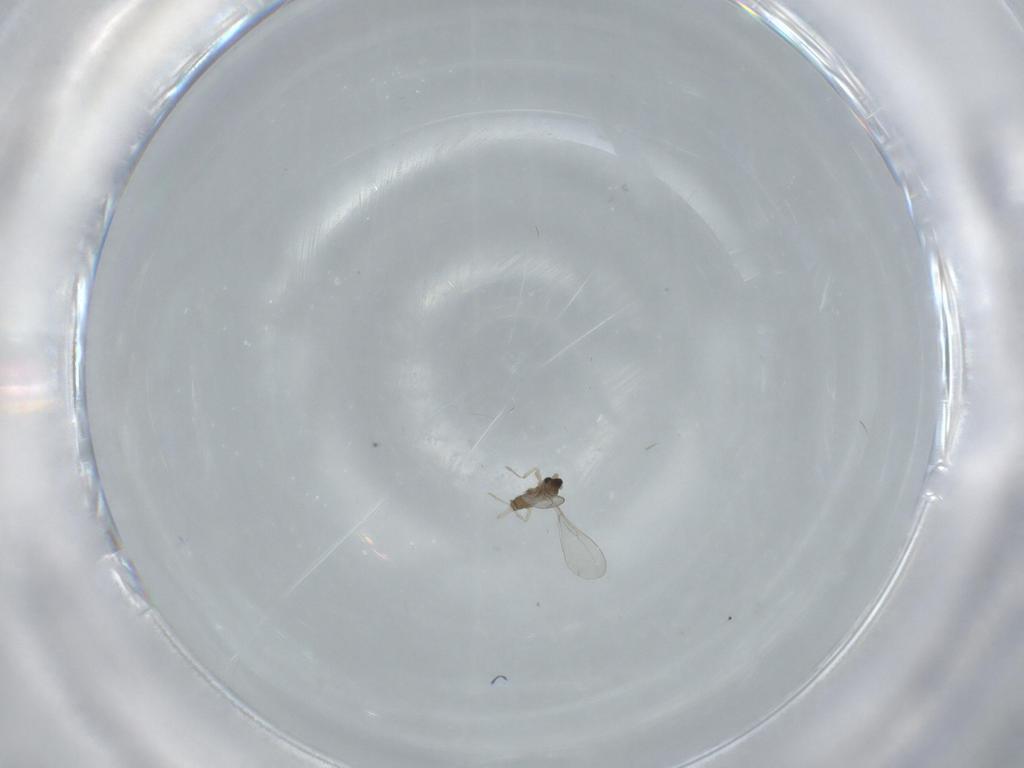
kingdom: Animalia
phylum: Arthropoda
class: Insecta
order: Diptera
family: Cecidomyiidae
